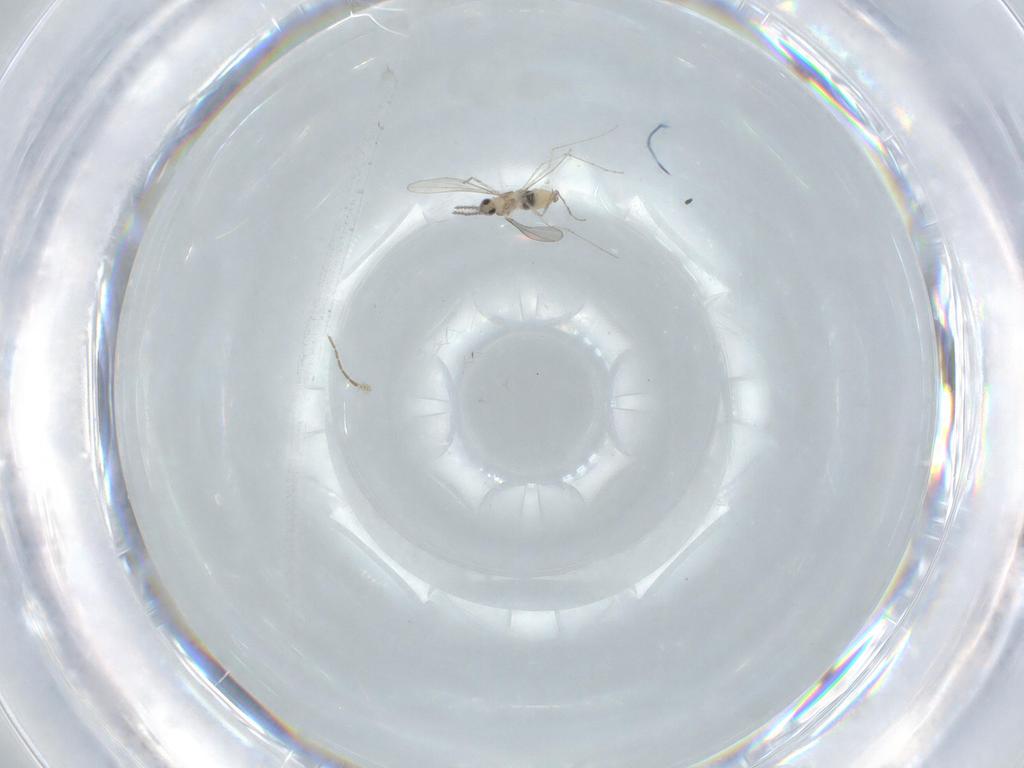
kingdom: Animalia
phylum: Arthropoda
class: Insecta
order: Diptera
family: Cecidomyiidae
